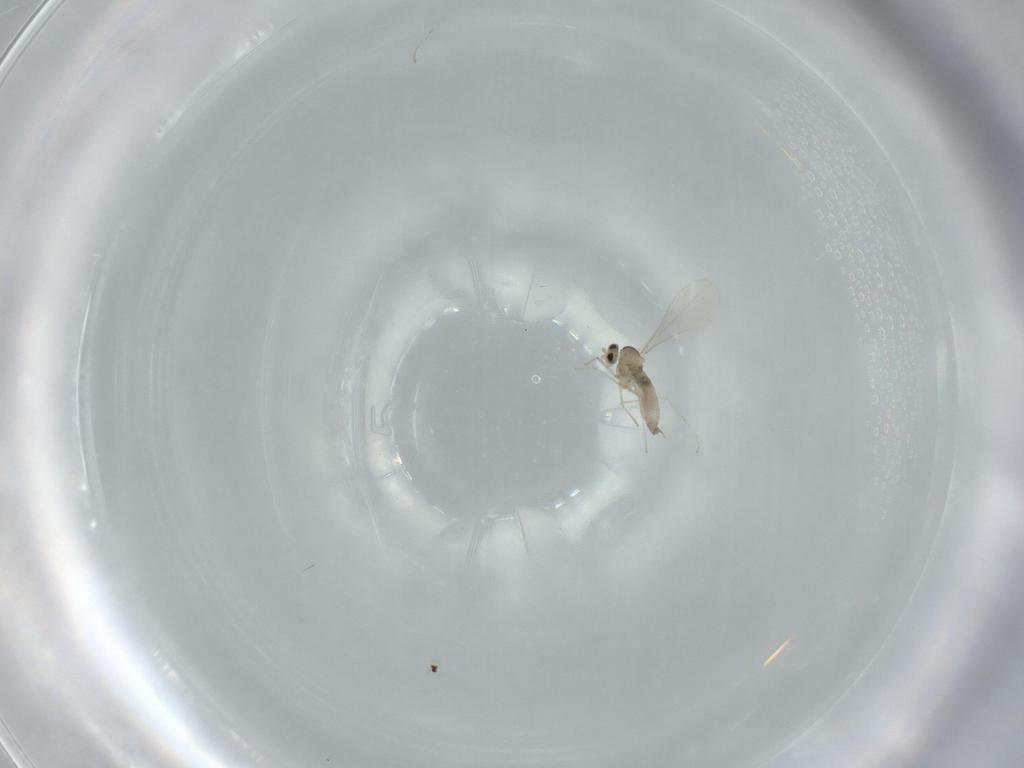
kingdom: Animalia
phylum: Arthropoda
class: Insecta
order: Diptera
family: Cecidomyiidae
